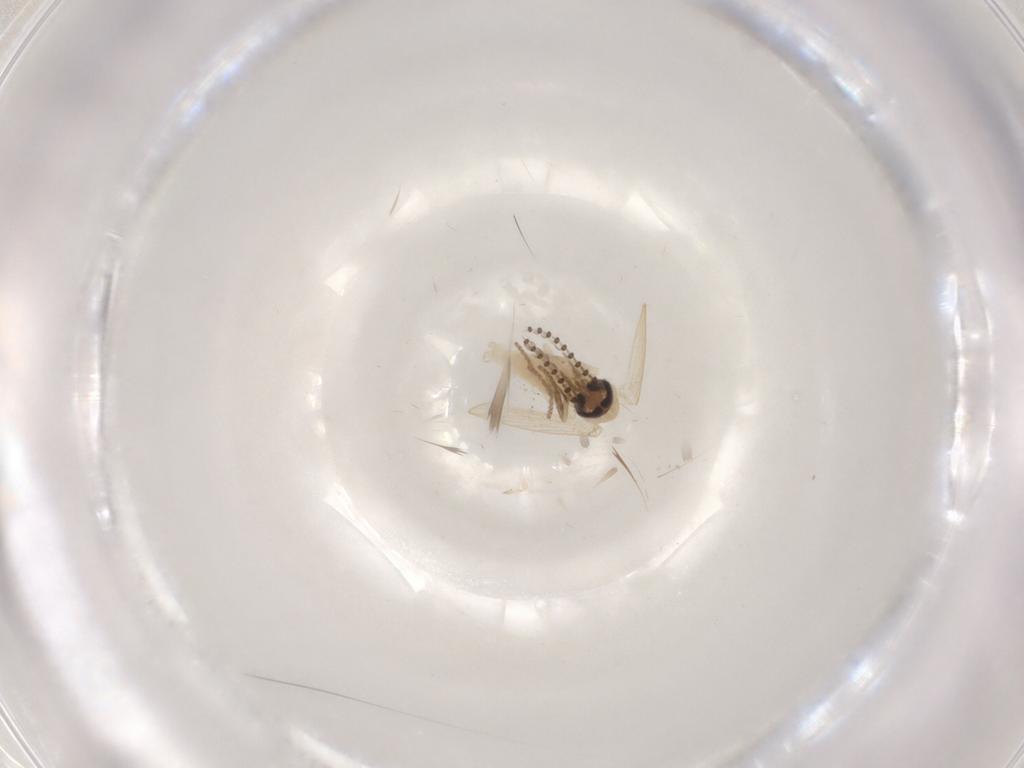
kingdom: Animalia
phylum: Arthropoda
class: Insecta
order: Diptera
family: Psychodidae
